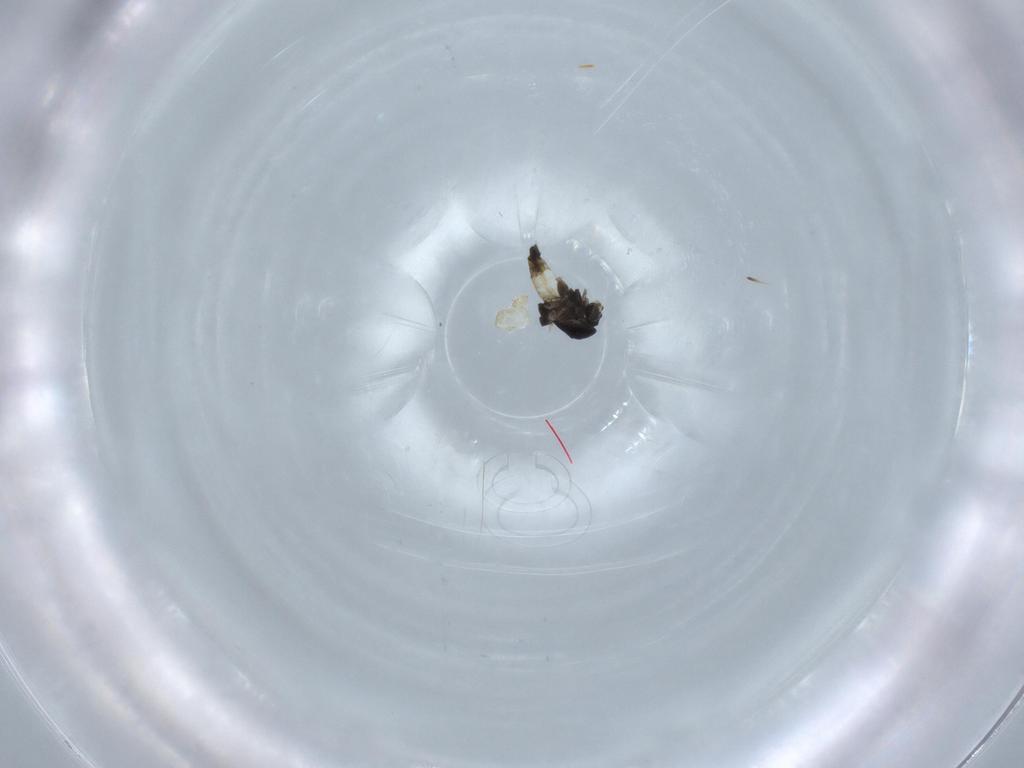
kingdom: Animalia
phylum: Arthropoda
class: Insecta
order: Diptera
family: Chironomidae
